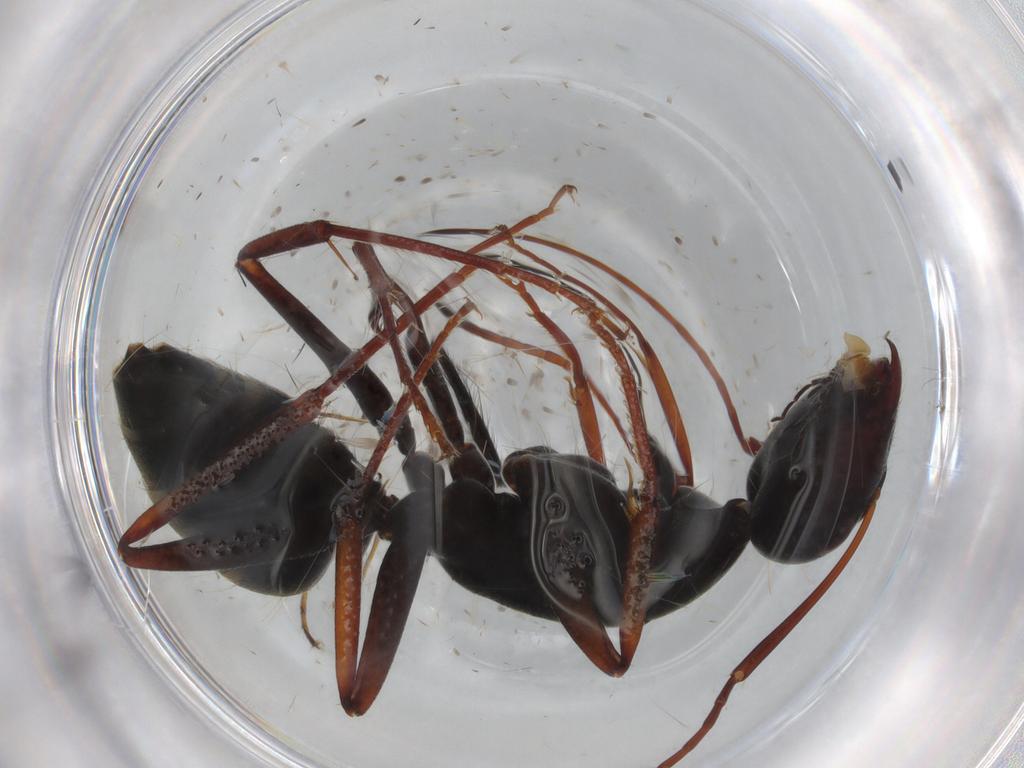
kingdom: Animalia
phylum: Arthropoda
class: Insecta
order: Hymenoptera
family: Formicidae
